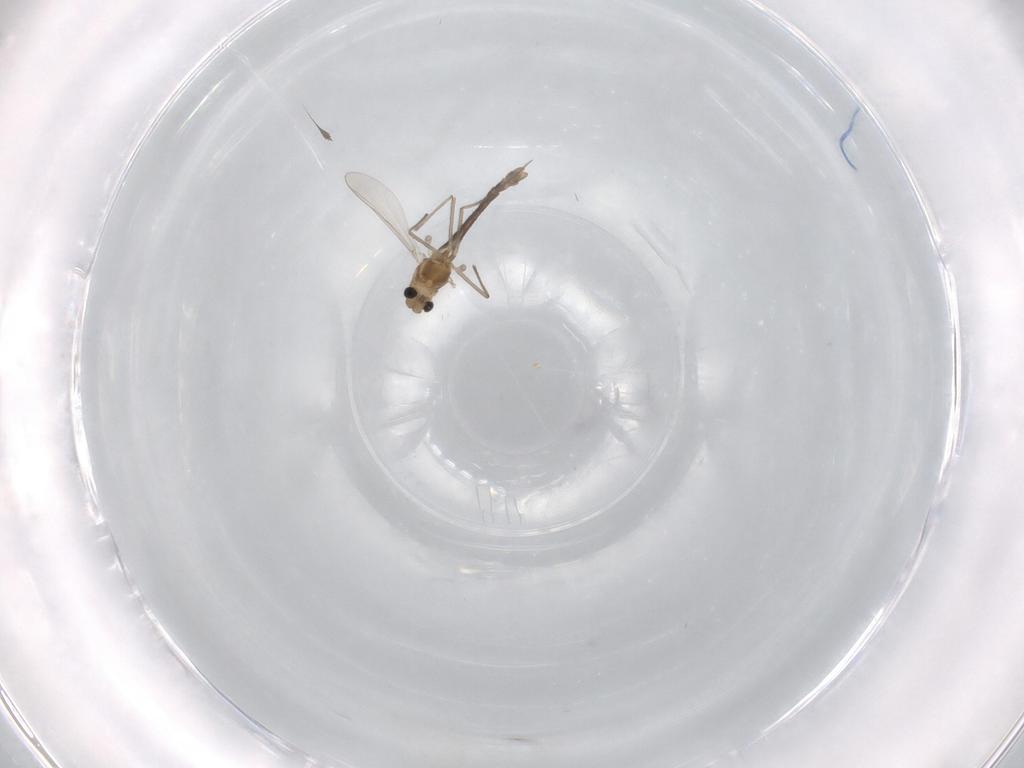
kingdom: Animalia
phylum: Arthropoda
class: Insecta
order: Diptera
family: Chironomidae
